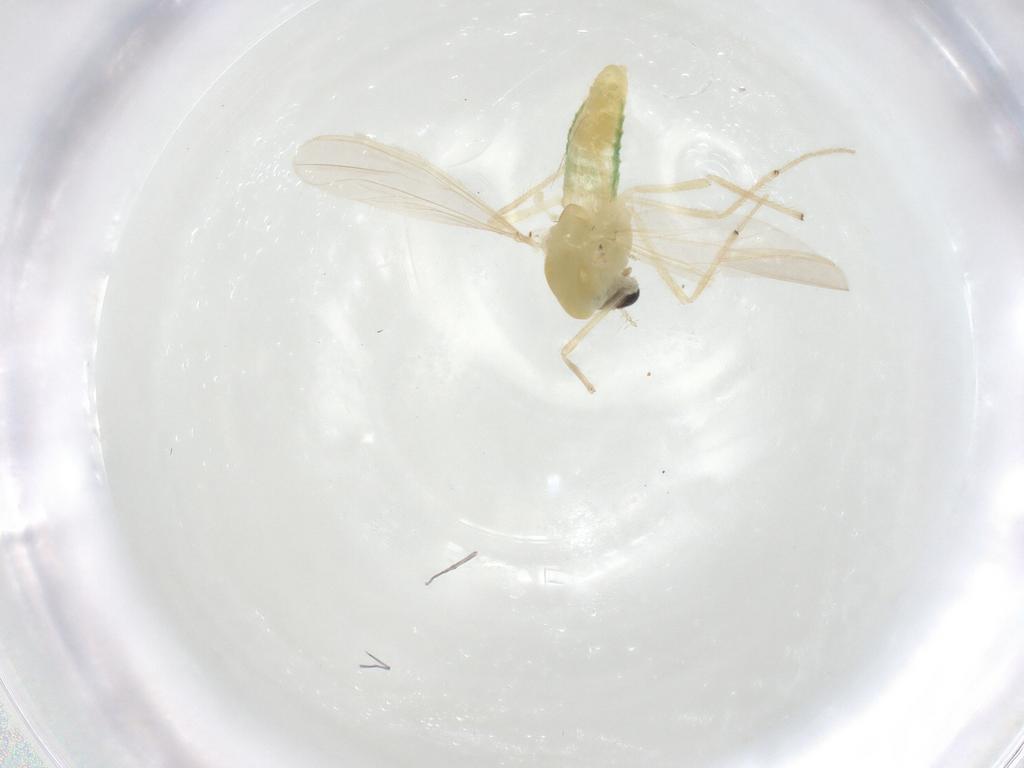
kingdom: Animalia
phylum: Arthropoda
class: Insecta
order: Diptera
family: Chironomidae
